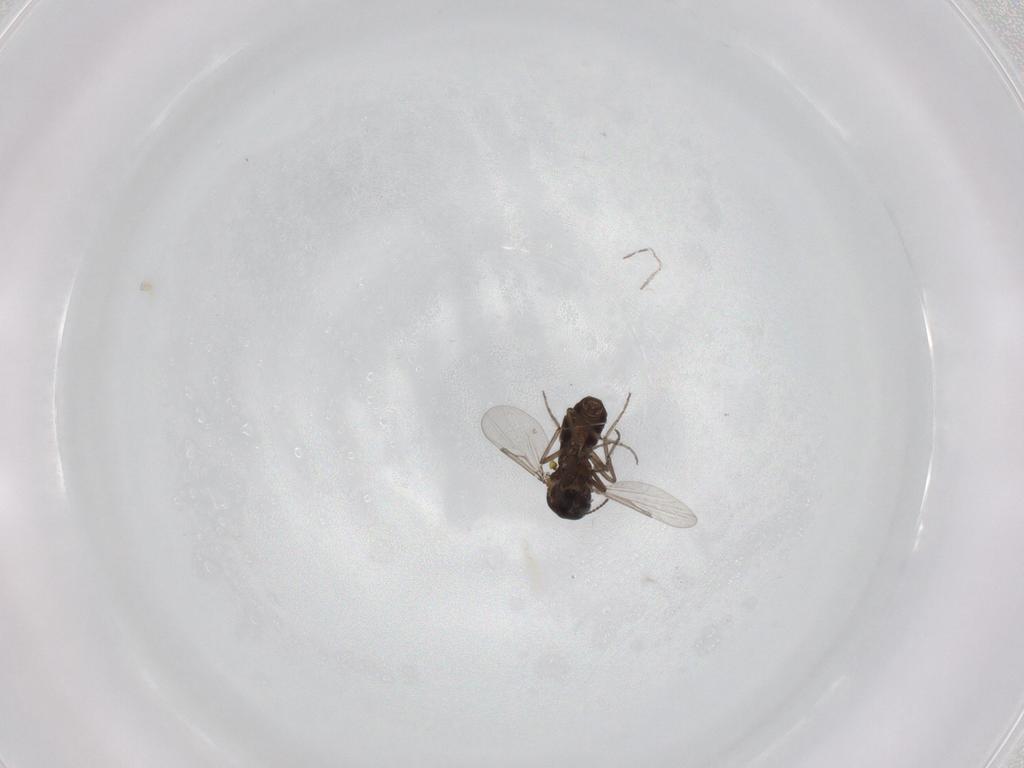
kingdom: Animalia
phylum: Arthropoda
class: Insecta
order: Diptera
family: Ceratopogonidae
